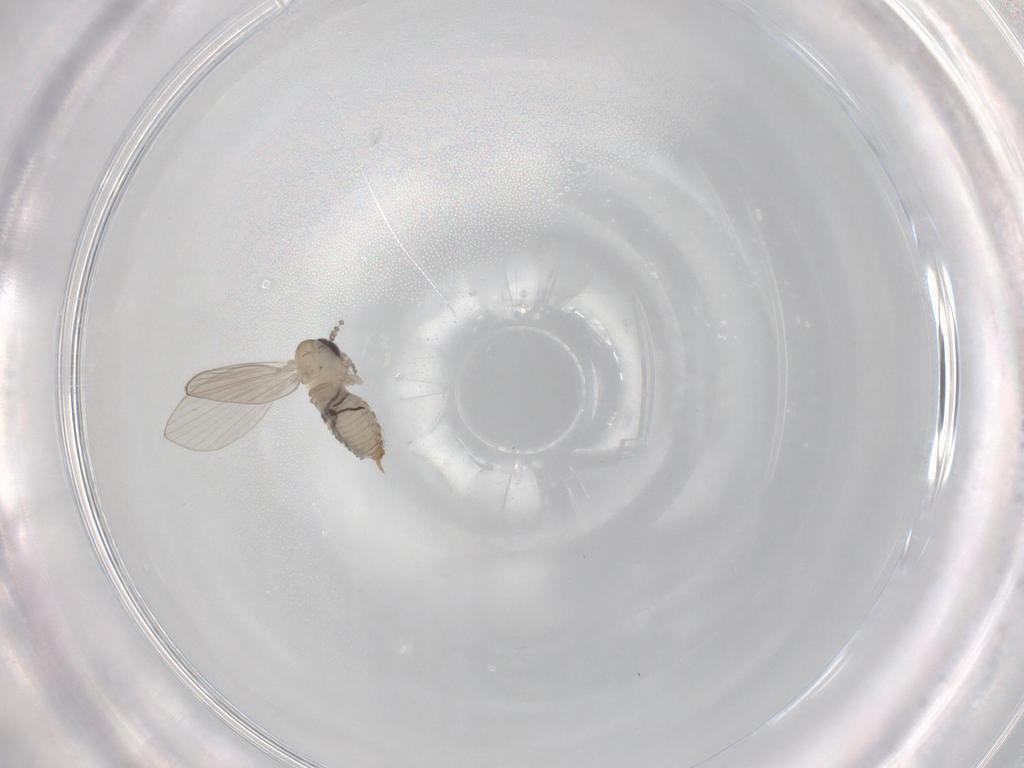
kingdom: Animalia
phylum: Arthropoda
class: Insecta
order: Diptera
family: Psychodidae
